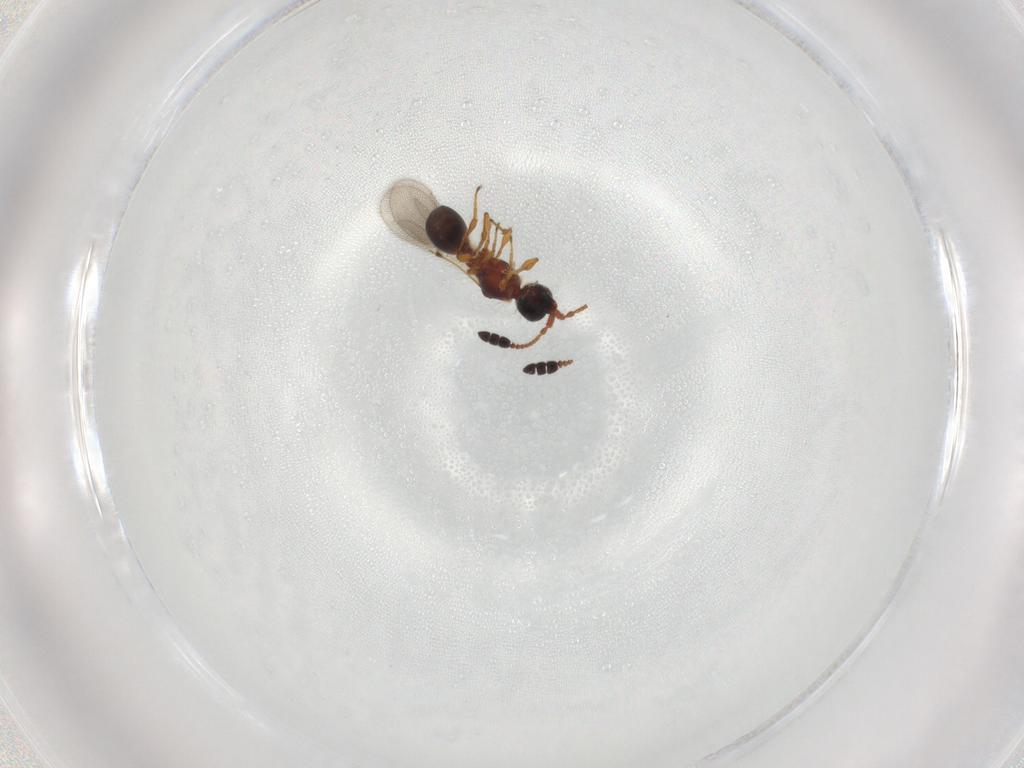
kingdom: Animalia
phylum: Arthropoda
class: Insecta
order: Hymenoptera
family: Diapriidae
